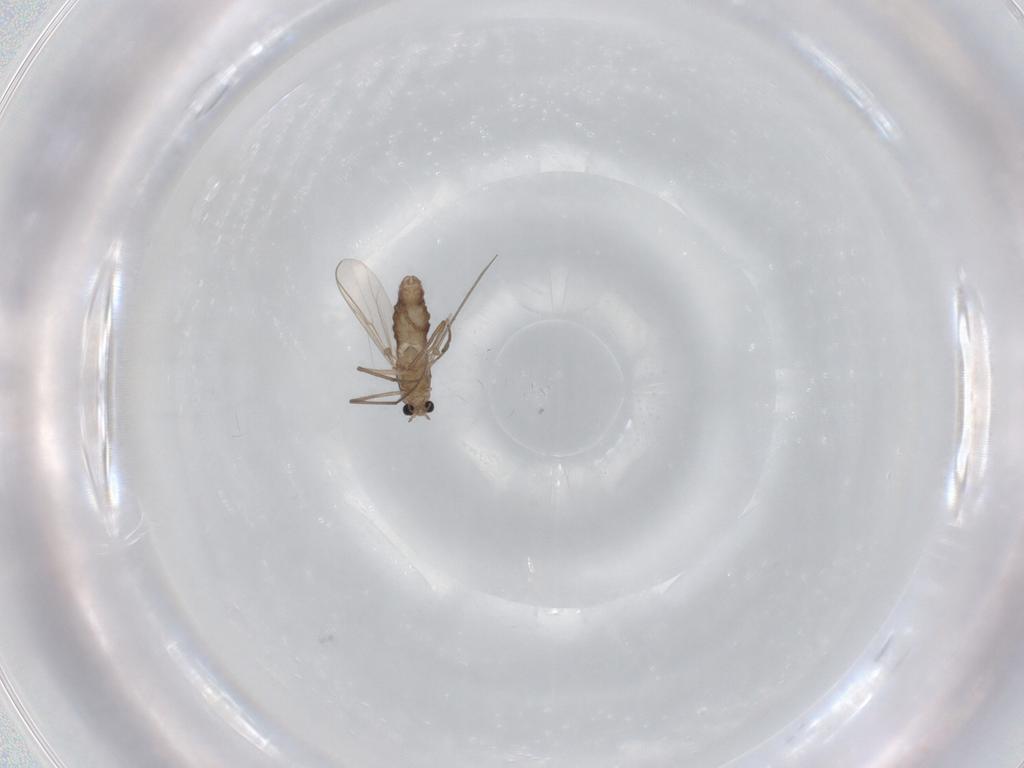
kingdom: Animalia
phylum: Arthropoda
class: Insecta
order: Diptera
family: Chironomidae
